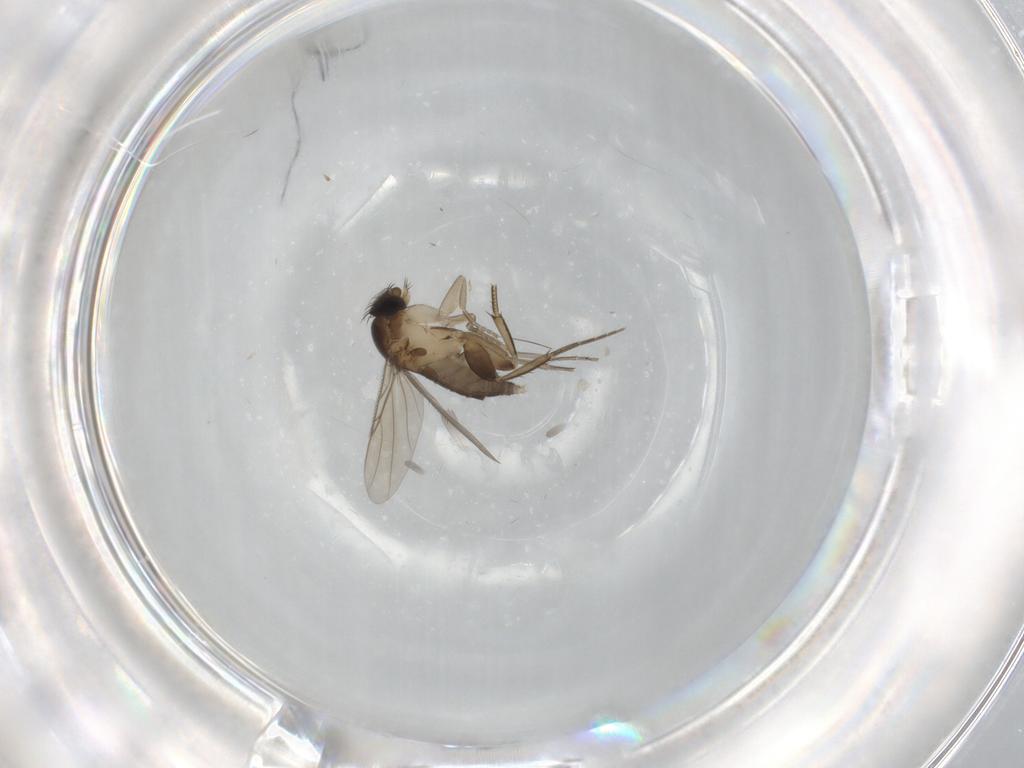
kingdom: Animalia
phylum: Arthropoda
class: Insecta
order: Diptera
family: Phoridae
